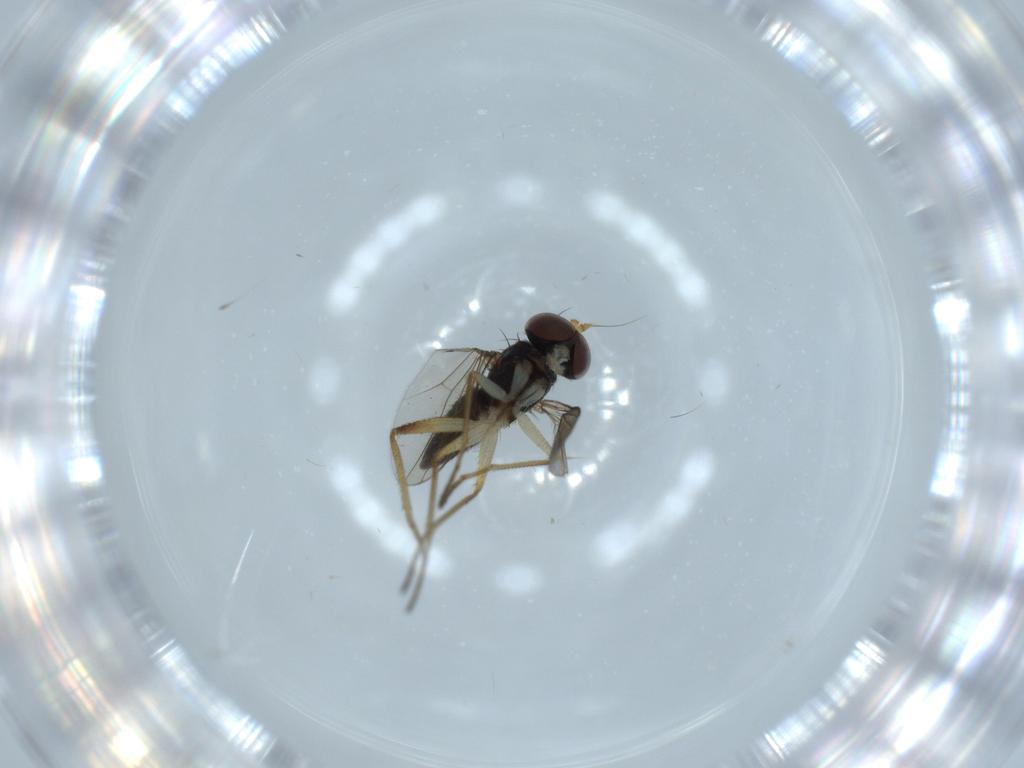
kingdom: Animalia
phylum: Arthropoda
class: Insecta
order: Diptera
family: Dolichopodidae
